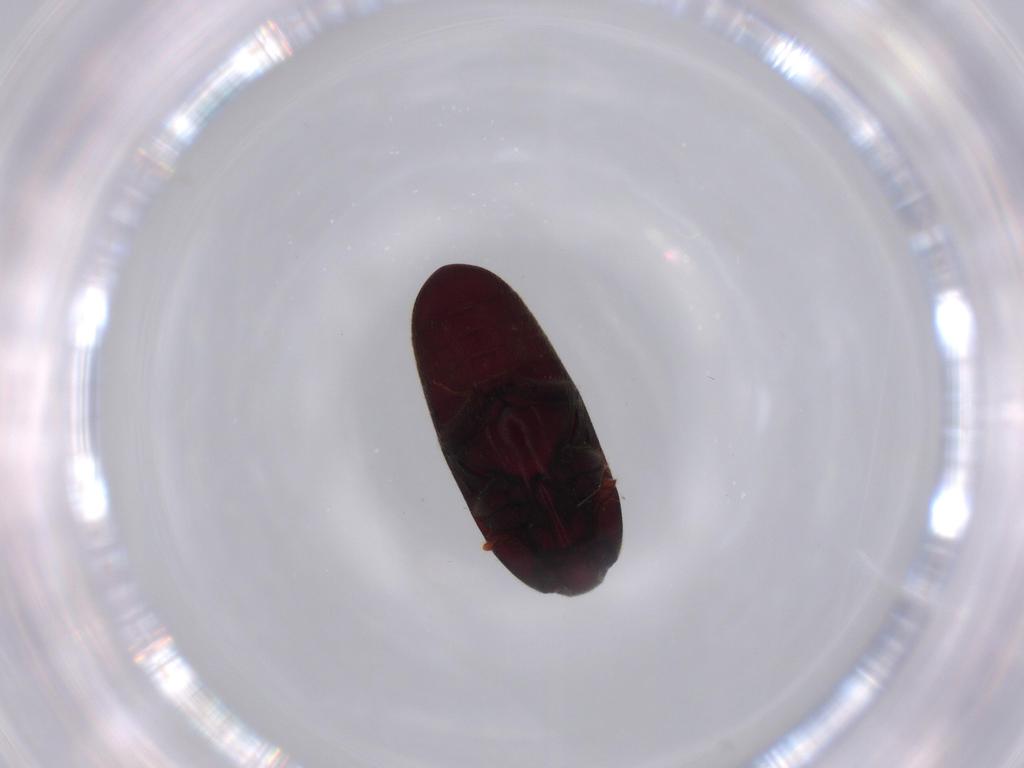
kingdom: Animalia
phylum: Arthropoda
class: Insecta
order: Coleoptera
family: Throscidae
